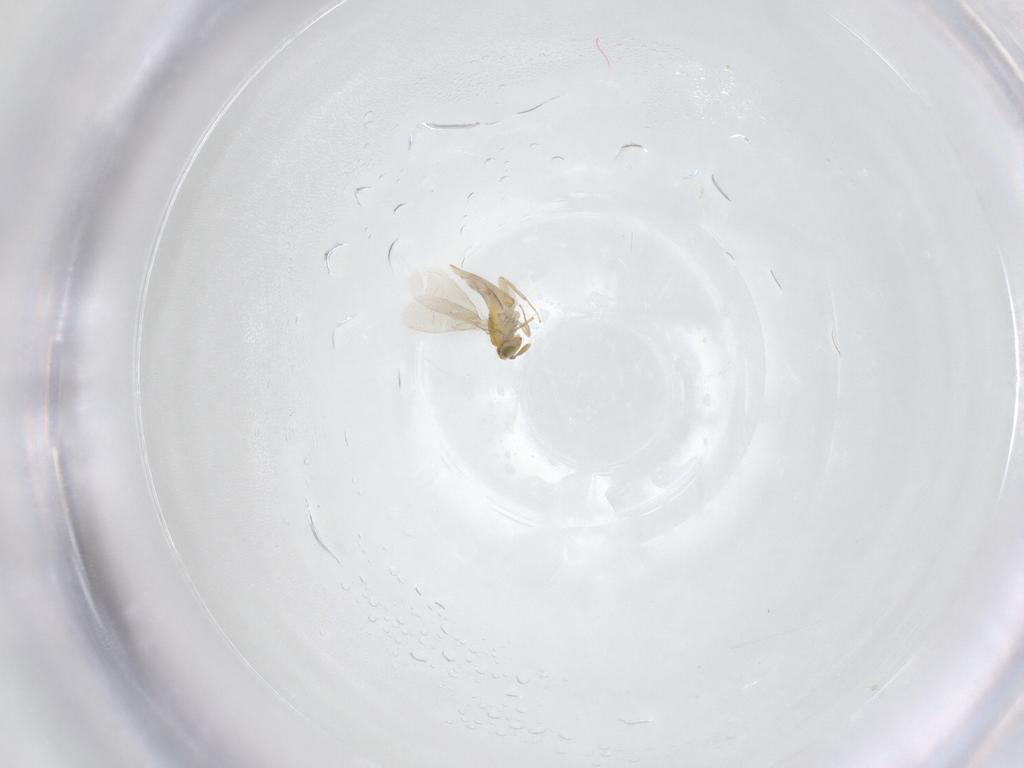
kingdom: Animalia
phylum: Arthropoda
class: Insecta
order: Hymenoptera
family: Aphelinidae
